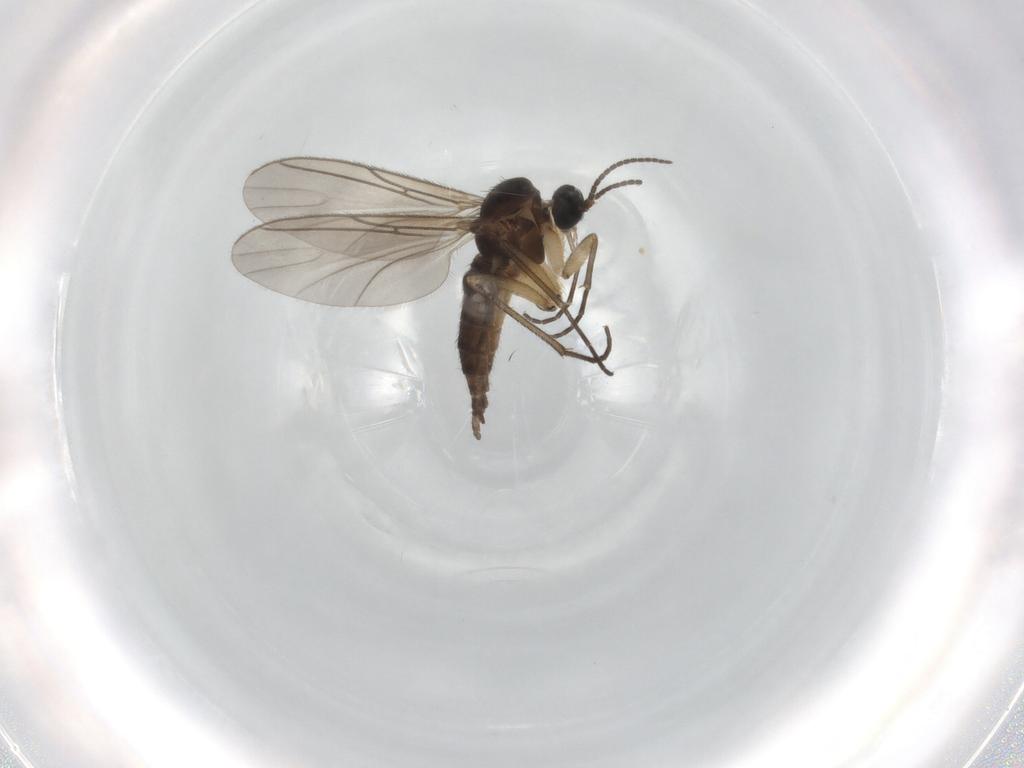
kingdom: Animalia
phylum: Arthropoda
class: Insecta
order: Diptera
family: Sciaridae
